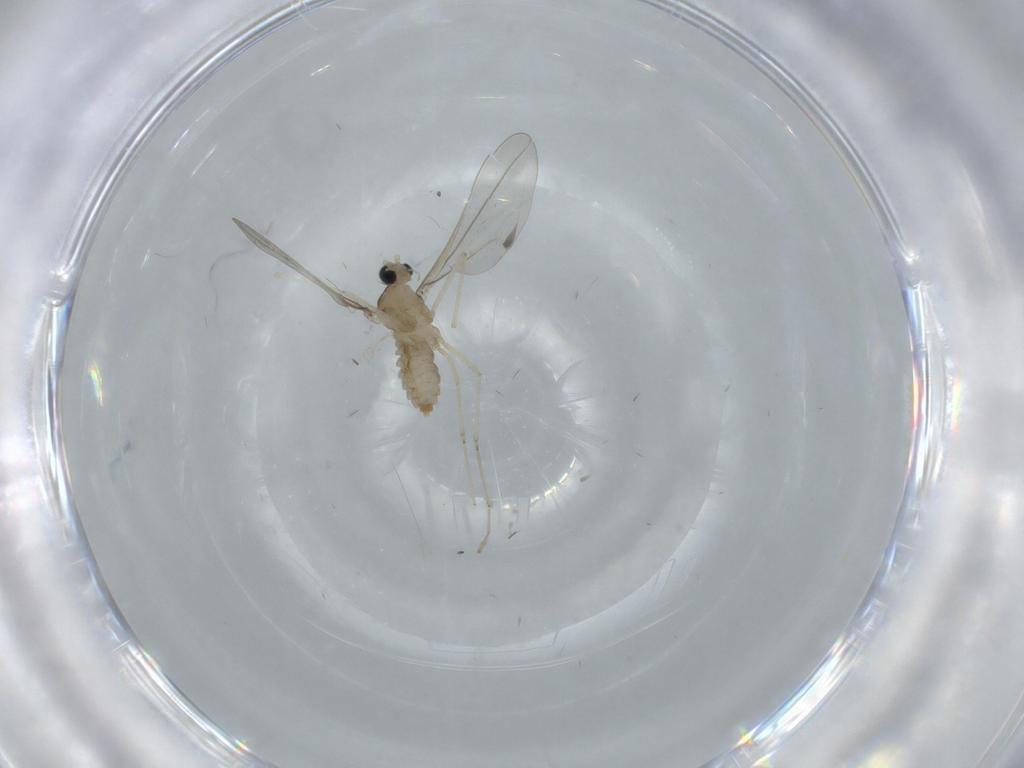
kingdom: Animalia
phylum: Arthropoda
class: Insecta
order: Diptera
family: Cecidomyiidae
